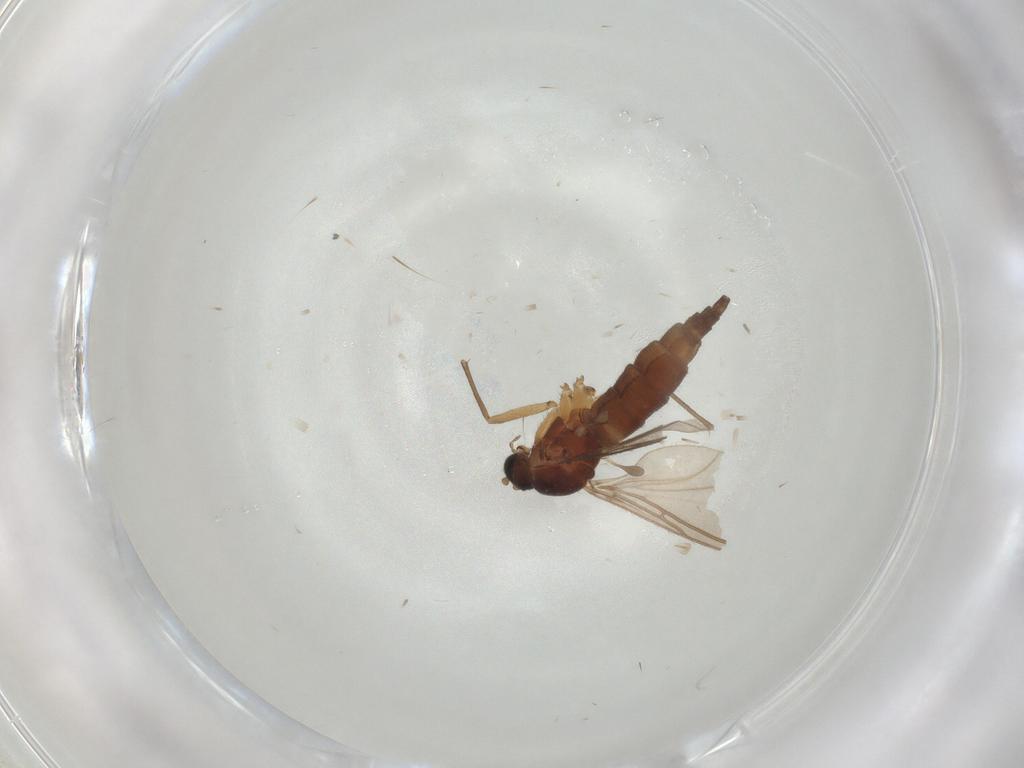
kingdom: Animalia
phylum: Arthropoda
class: Insecta
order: Diptera
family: Sciaridae
